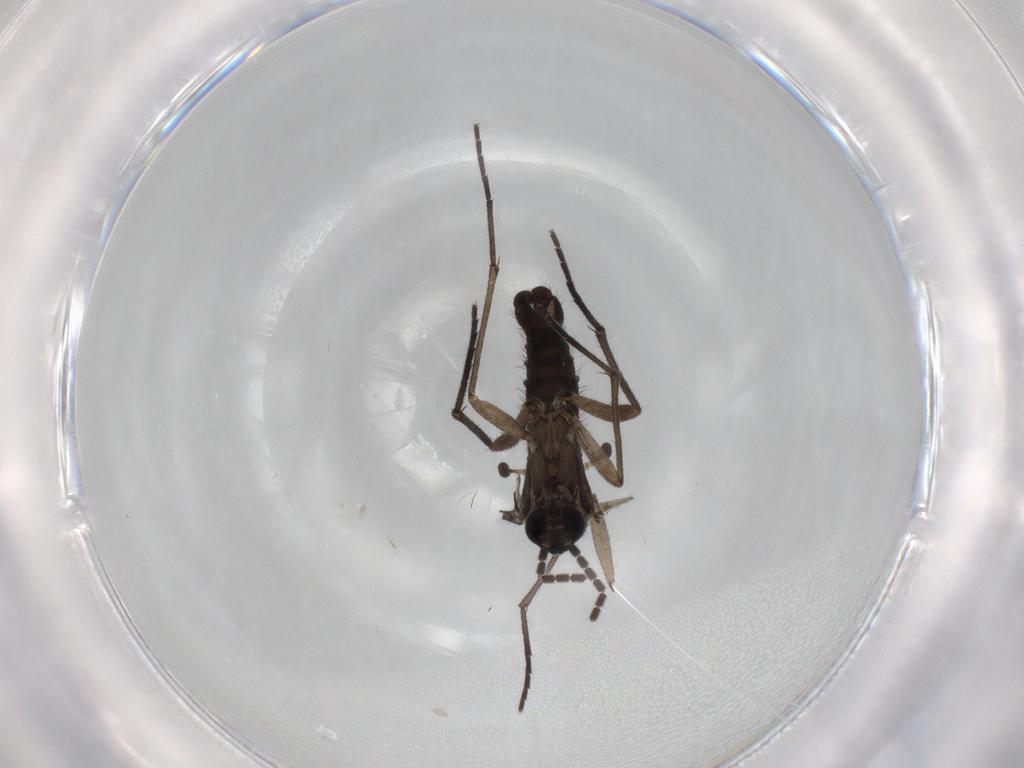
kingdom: Animalia
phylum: Arthropoda
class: Insecta
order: Diptera
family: Sciaridae
